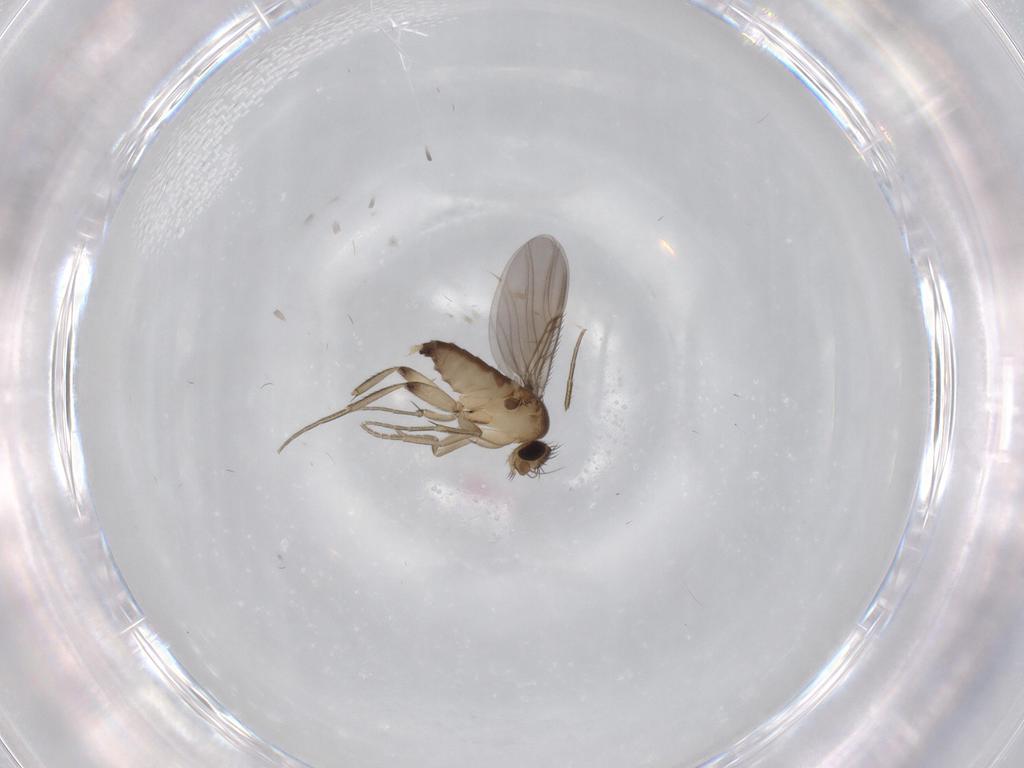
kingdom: Animalia
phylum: Arthropoda
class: Insecta
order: Diptera
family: Phoridae
